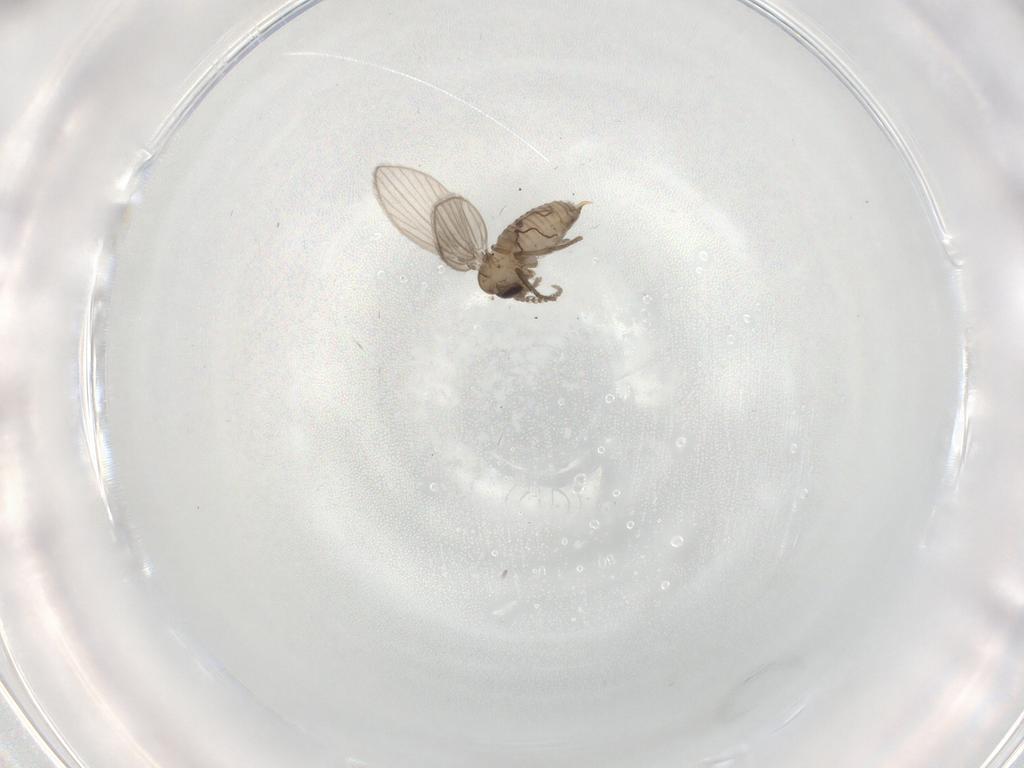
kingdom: Animalia
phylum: Arthropoda
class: Insecta
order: Diptera
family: Psychodidae
